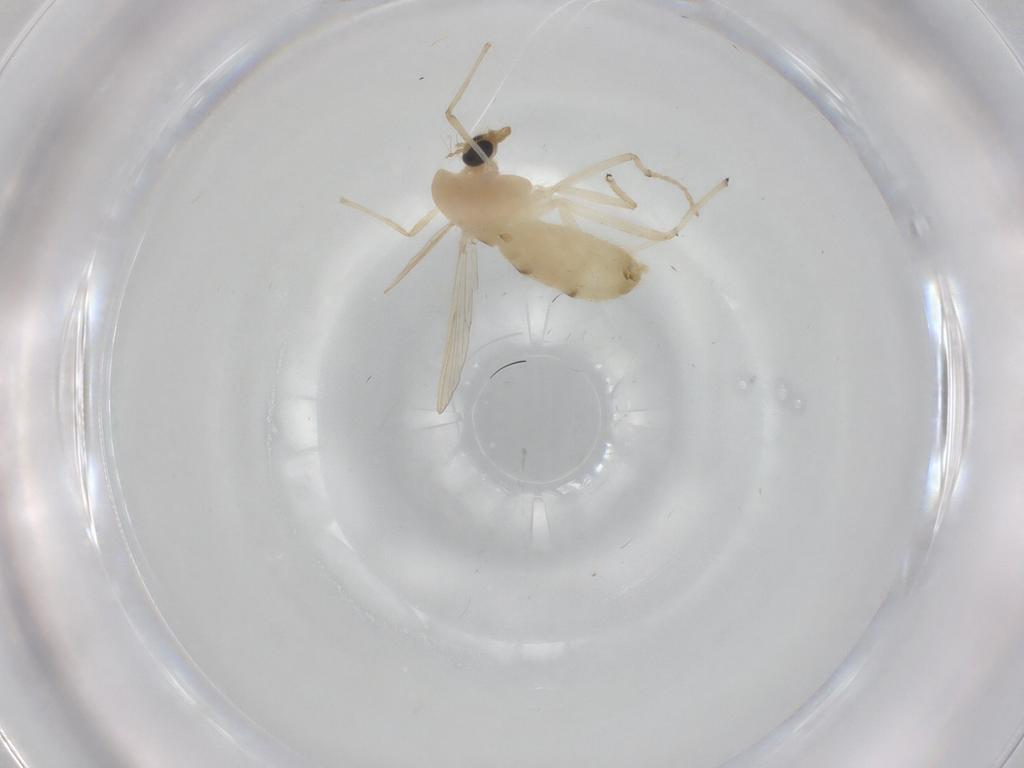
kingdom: Animalia
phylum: Arthropoda
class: Insecta
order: Diptera
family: Chironomidae
